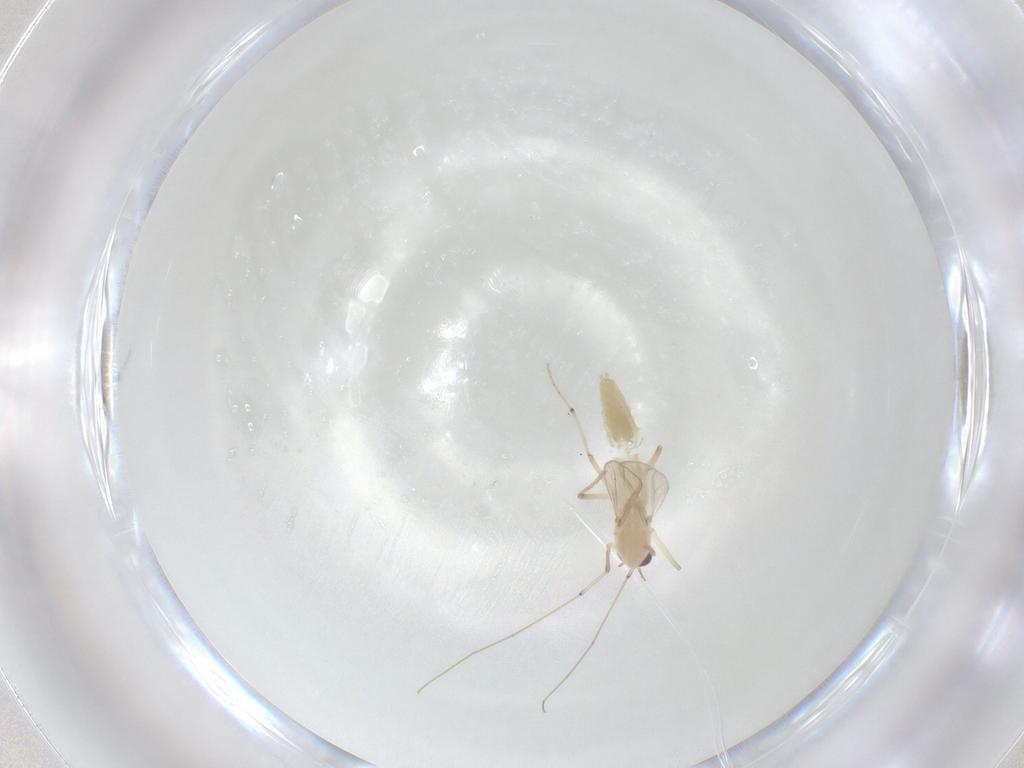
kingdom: Animalia
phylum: Arthropoda
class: Insecta
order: Diptera
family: Chironomidae
